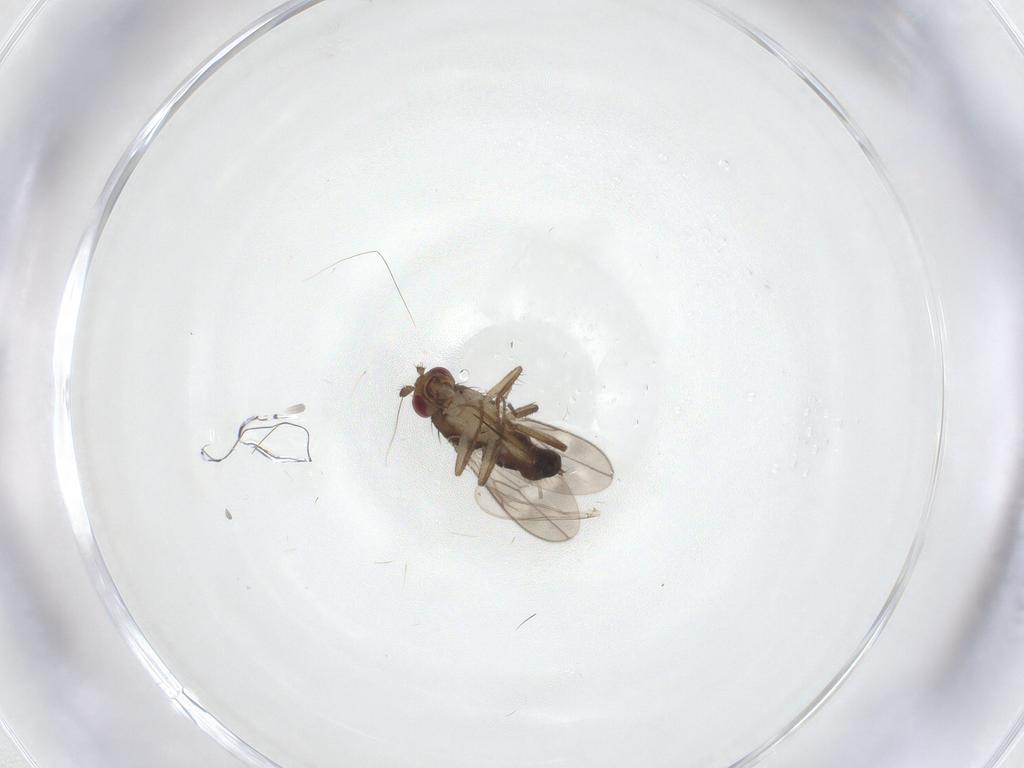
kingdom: Animalia
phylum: Arthropoda
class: Insecta
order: Diptera
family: Sphaeroceridae
